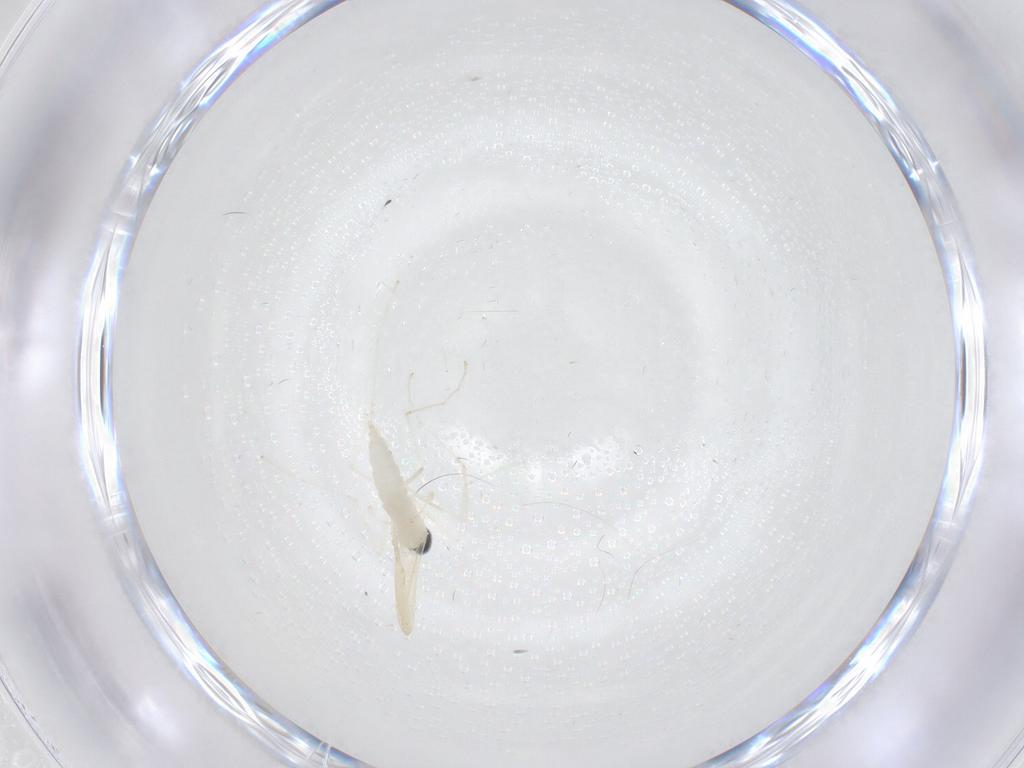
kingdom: Animalia
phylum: Arthropoda
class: Insecta
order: Diptera
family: Cecidomyiidae
